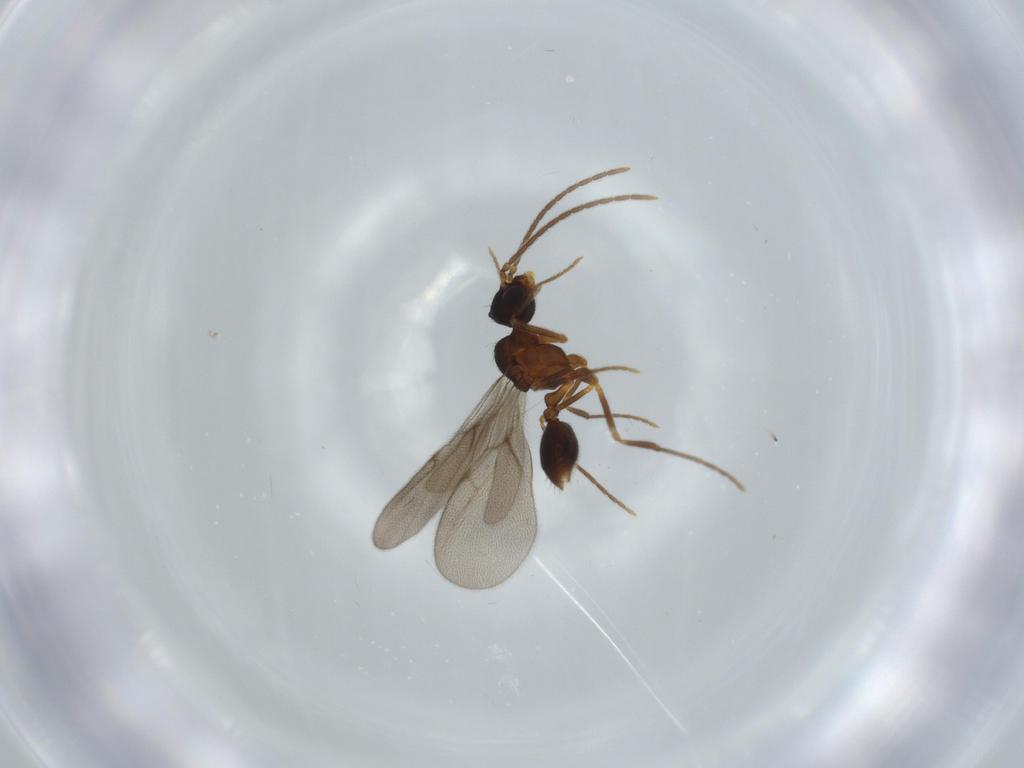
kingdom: Animalia
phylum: Arthropoda
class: Insecta
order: Hymenoptera
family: Formicidae
